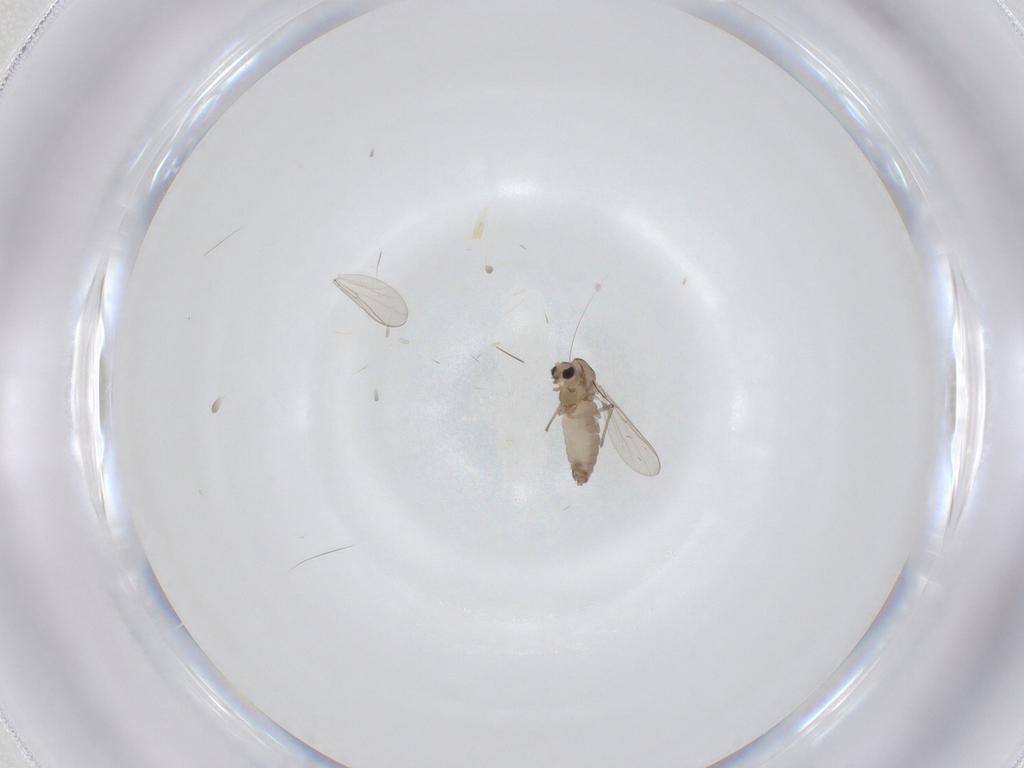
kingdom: Animalia
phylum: Arthropoda
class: Insecta
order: Diptera
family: Chironomidae
